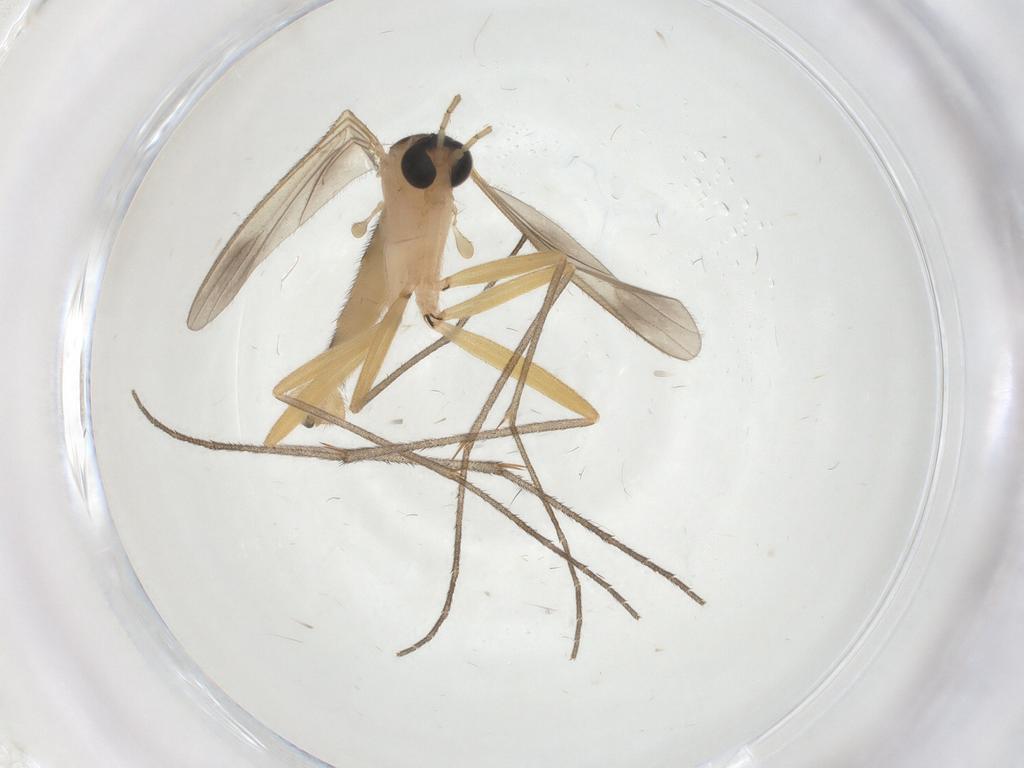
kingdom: Animalia
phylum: Arthropoda
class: Insecta
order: Diptera
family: Sciaridae
